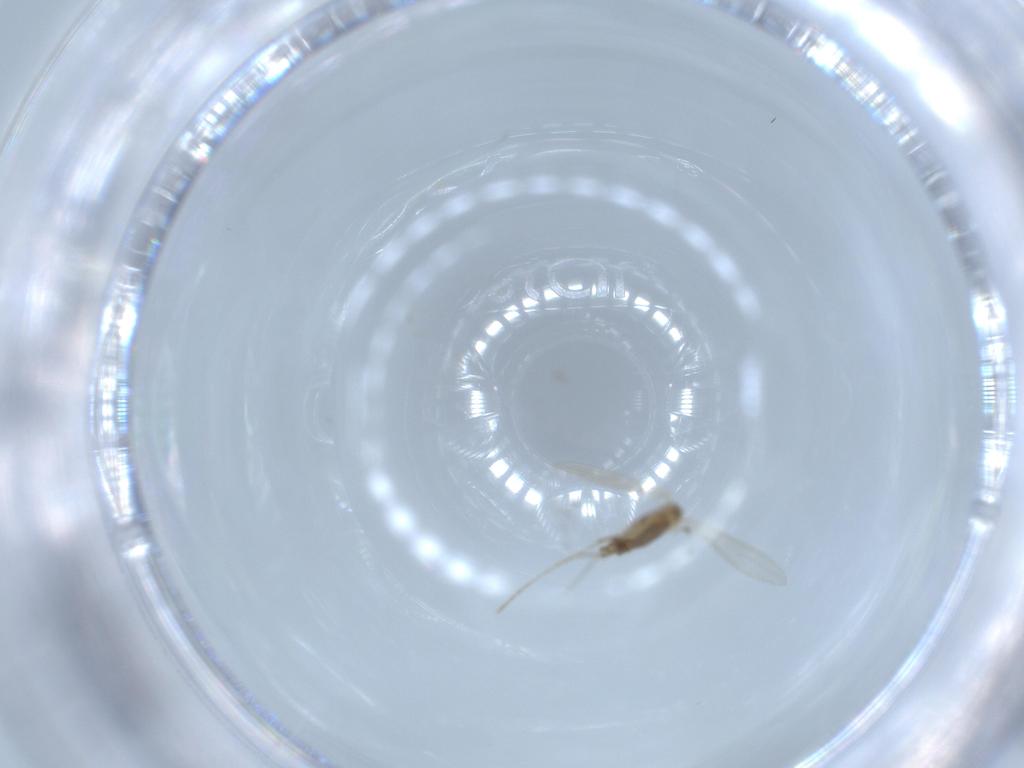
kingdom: Animalia
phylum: Arthropoda
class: Insecta
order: Diptera
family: Psychodidae
